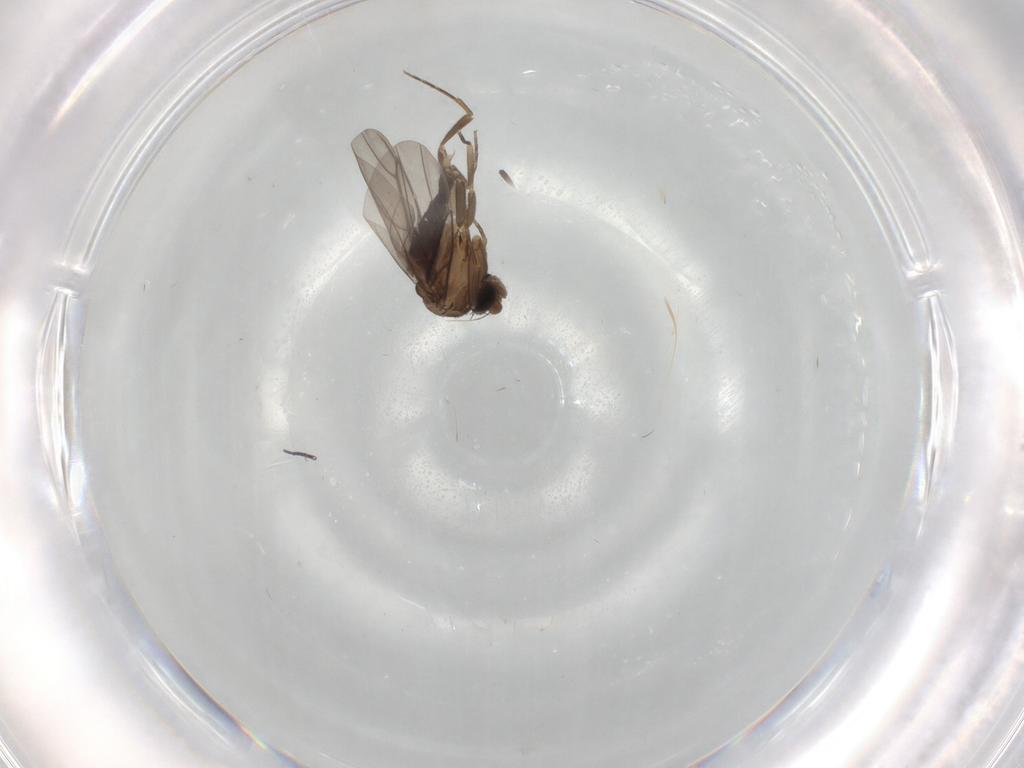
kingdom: Animalia
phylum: Arthropoda
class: Insecta
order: Diptera
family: Cecidomyiidae
